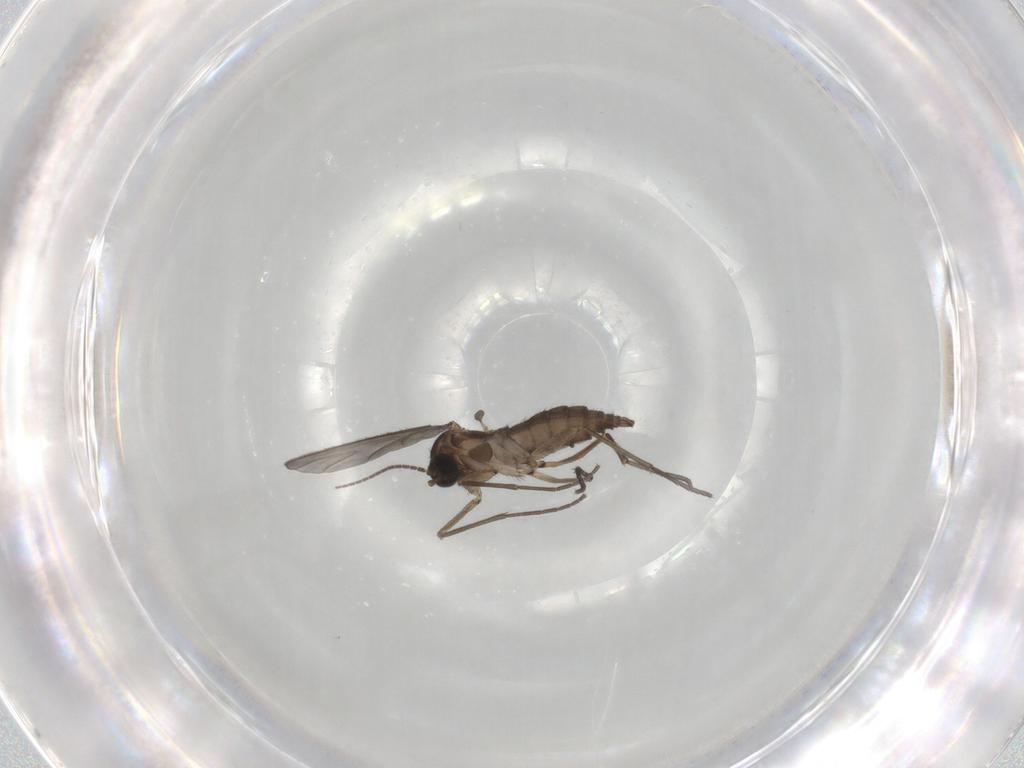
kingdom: Animalia
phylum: Arthropoda
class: Insecta
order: Diptera
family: Sciaridae
